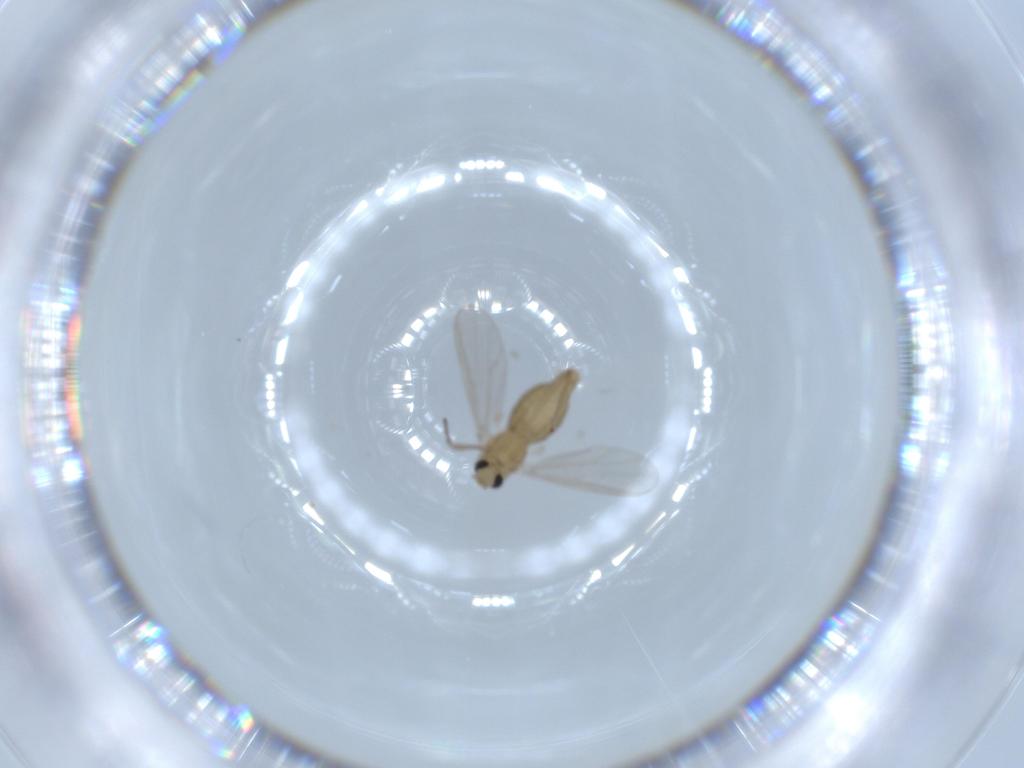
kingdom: Animalia
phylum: Arthropoda
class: Insecta
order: Diptera
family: Chironomidae
